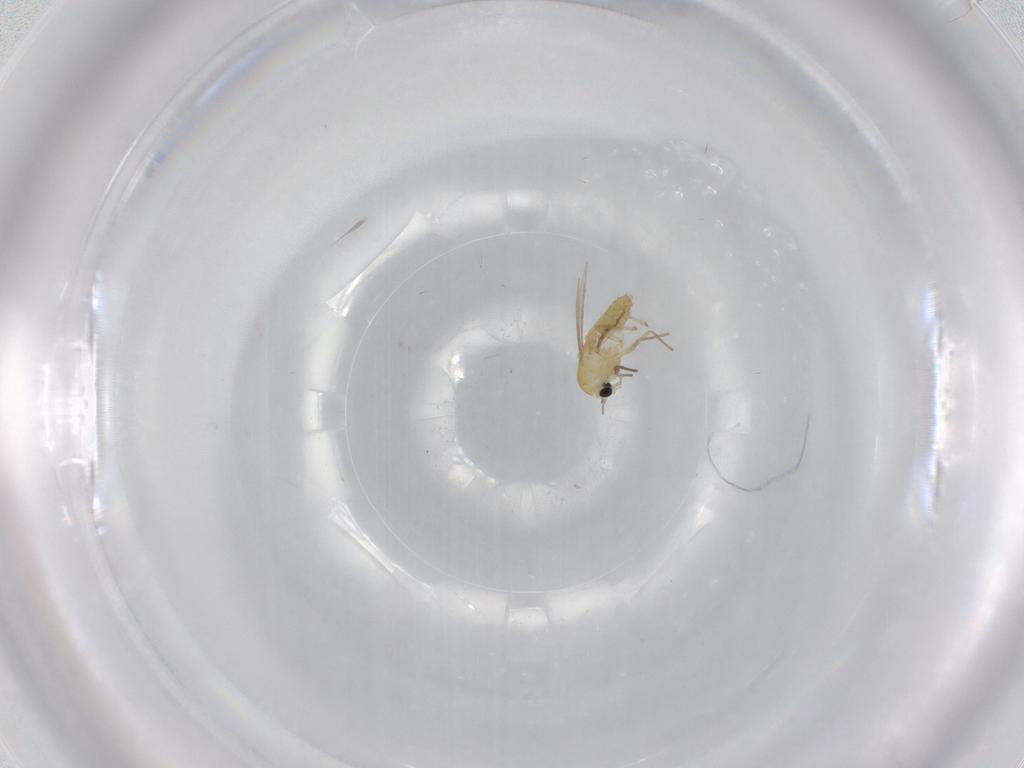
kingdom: Animalia
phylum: Arthropoda
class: Insecta
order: Diptera
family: Chironomidae
